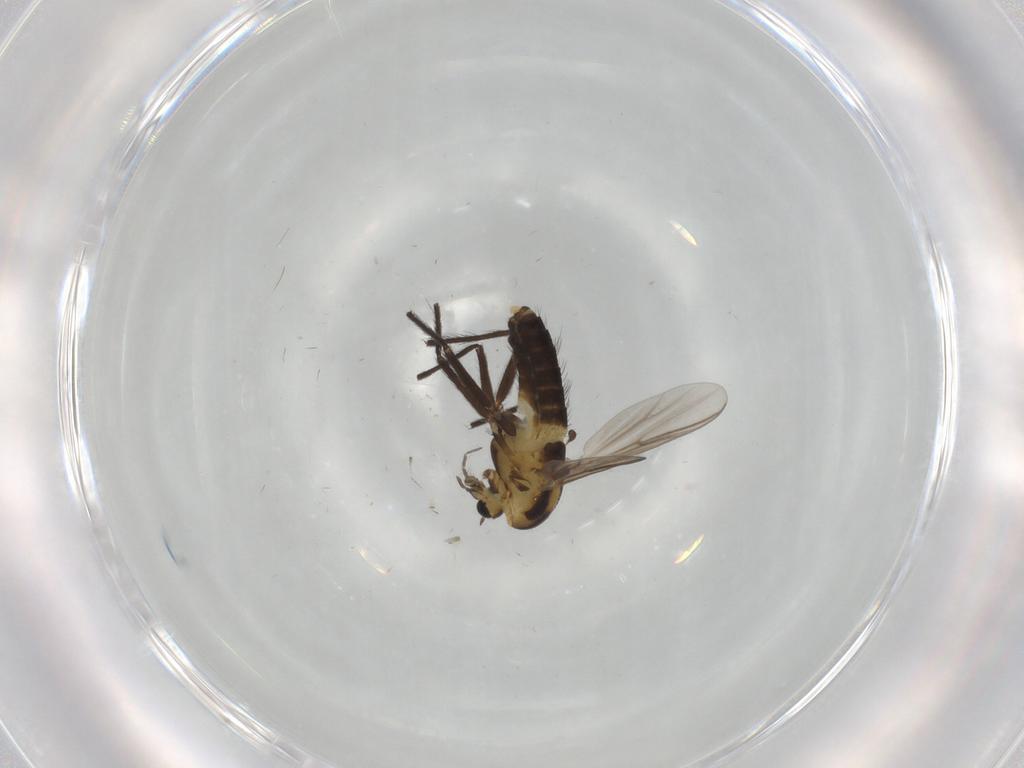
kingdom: Animalia
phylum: Arthropoda
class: Insecta
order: Diptera
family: Chironomidae
